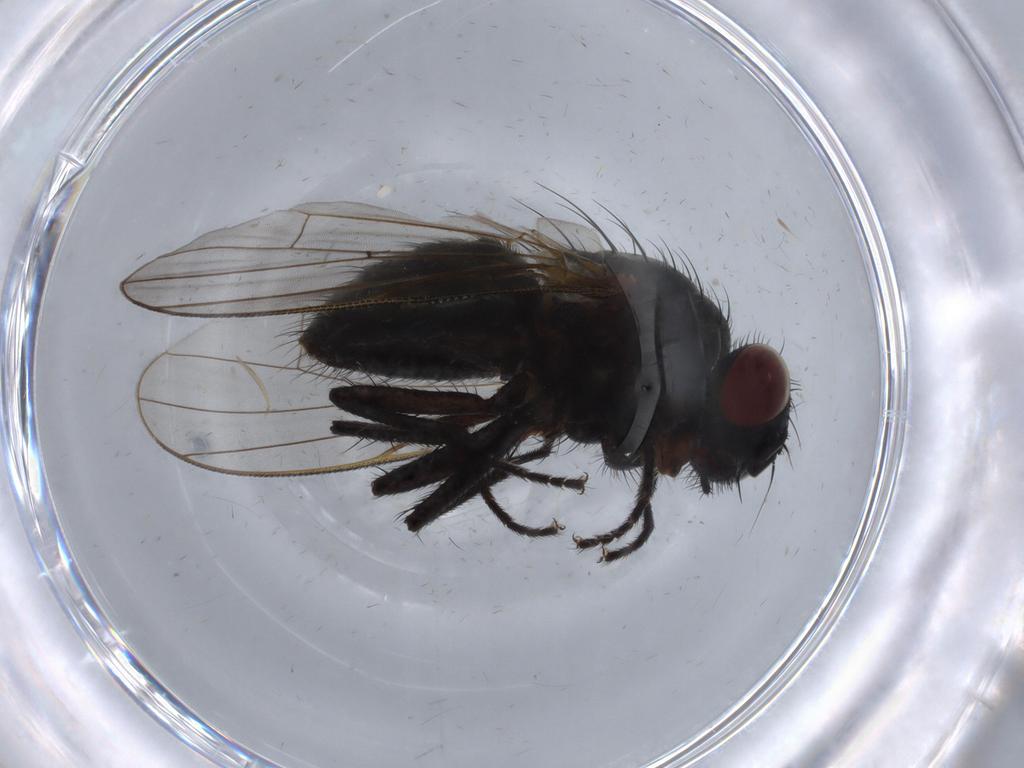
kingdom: Animalia
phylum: Arthropoda
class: Insecta
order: Diptera
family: Muscidae
